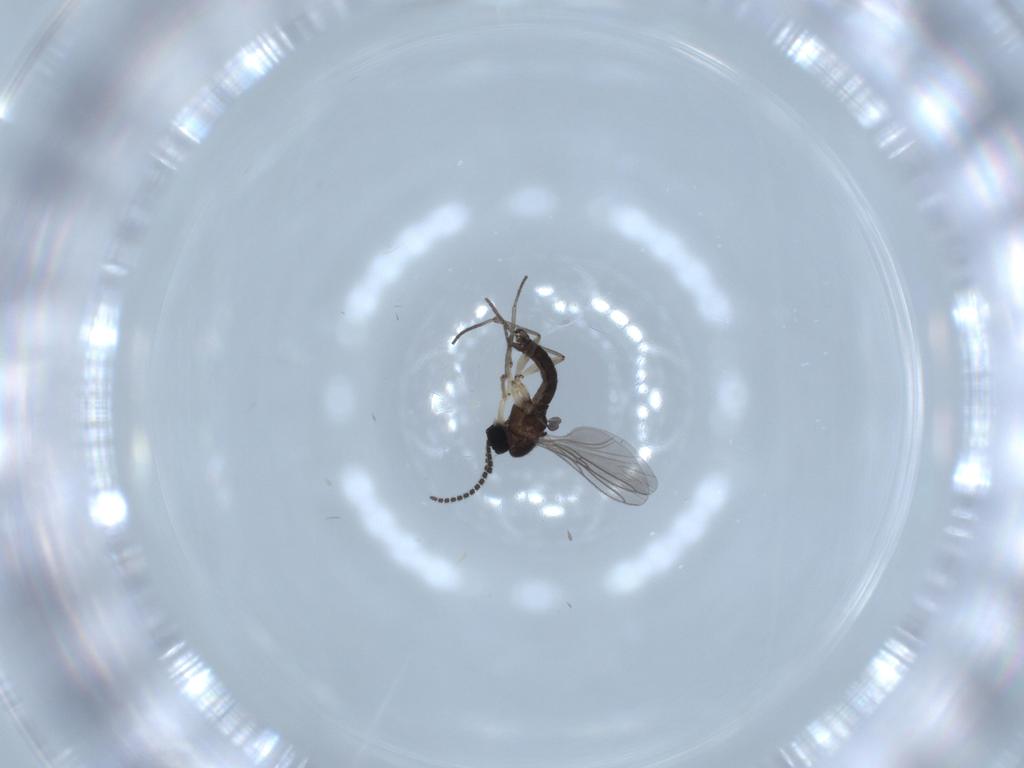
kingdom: Animalia
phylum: Arthropoda
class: Insecta
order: Diptera
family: Sciaridae
